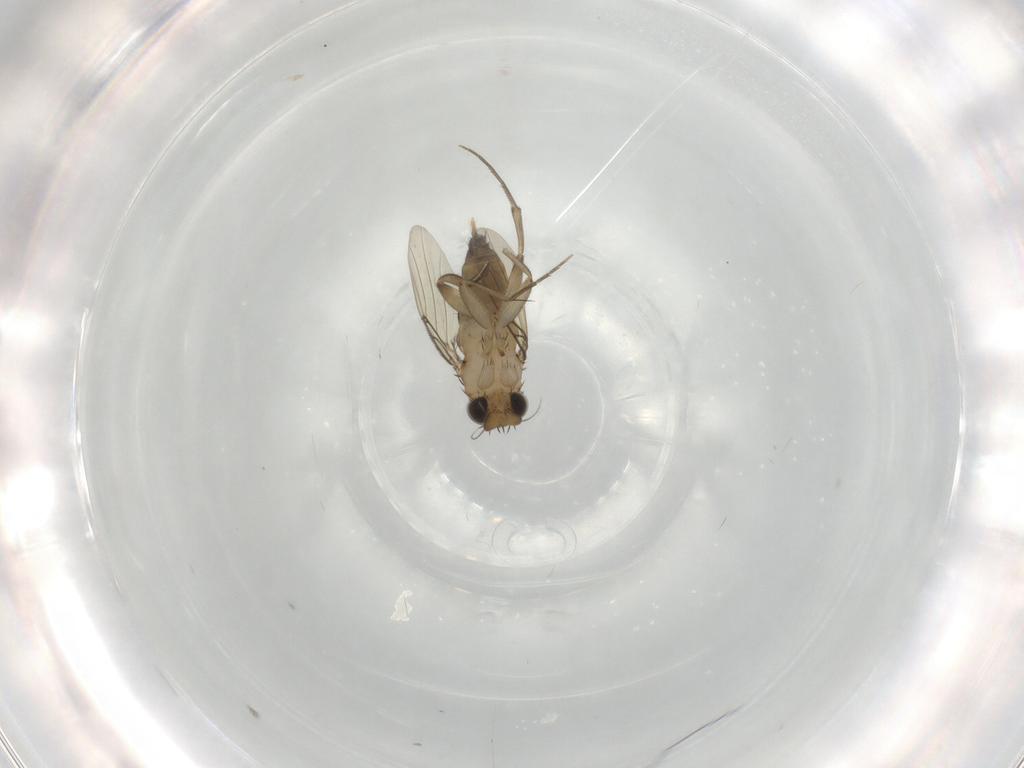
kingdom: Animalia
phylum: Arthropoda
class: Insecta
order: Diptera
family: Phoridae
